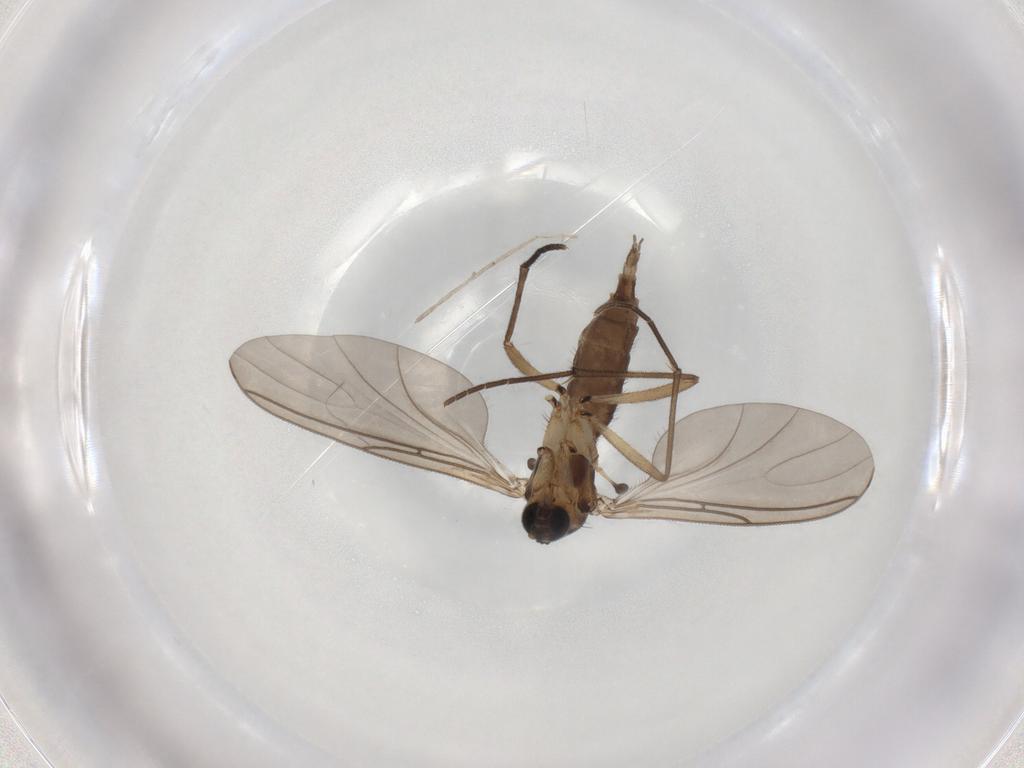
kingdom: Animalia
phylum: Arthropoda
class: Insecta
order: Diptera
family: Sciaridae
